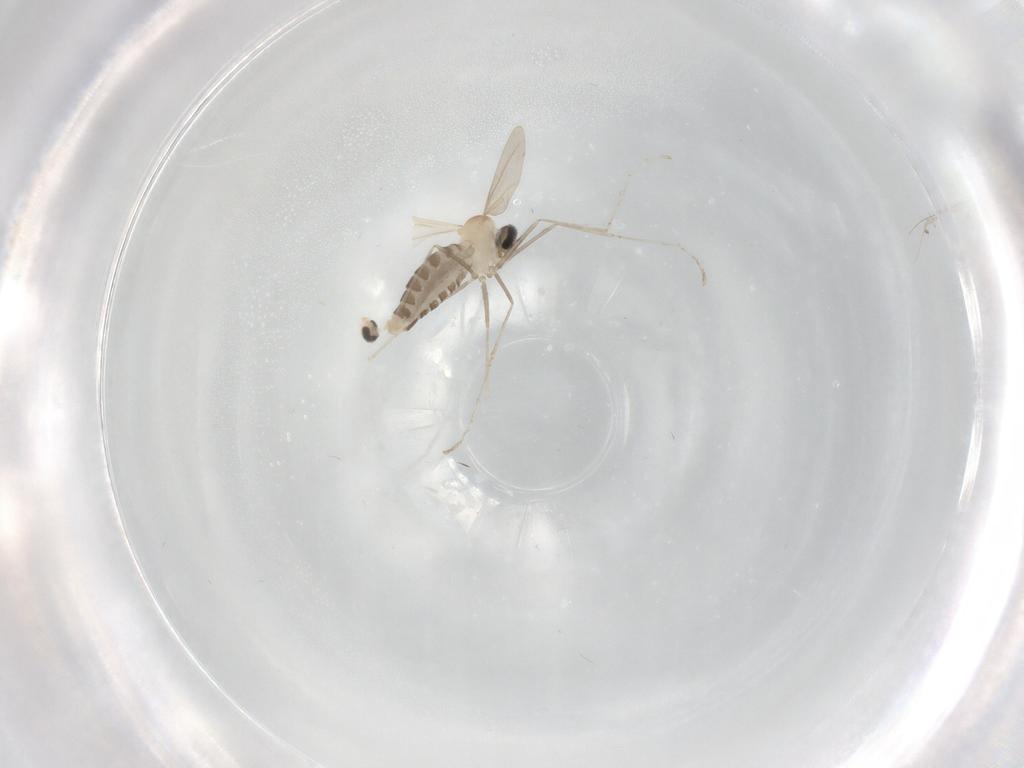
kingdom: Animalia
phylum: Arthropoda
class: Insecta
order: Diptera
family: Cecidomyiidae
